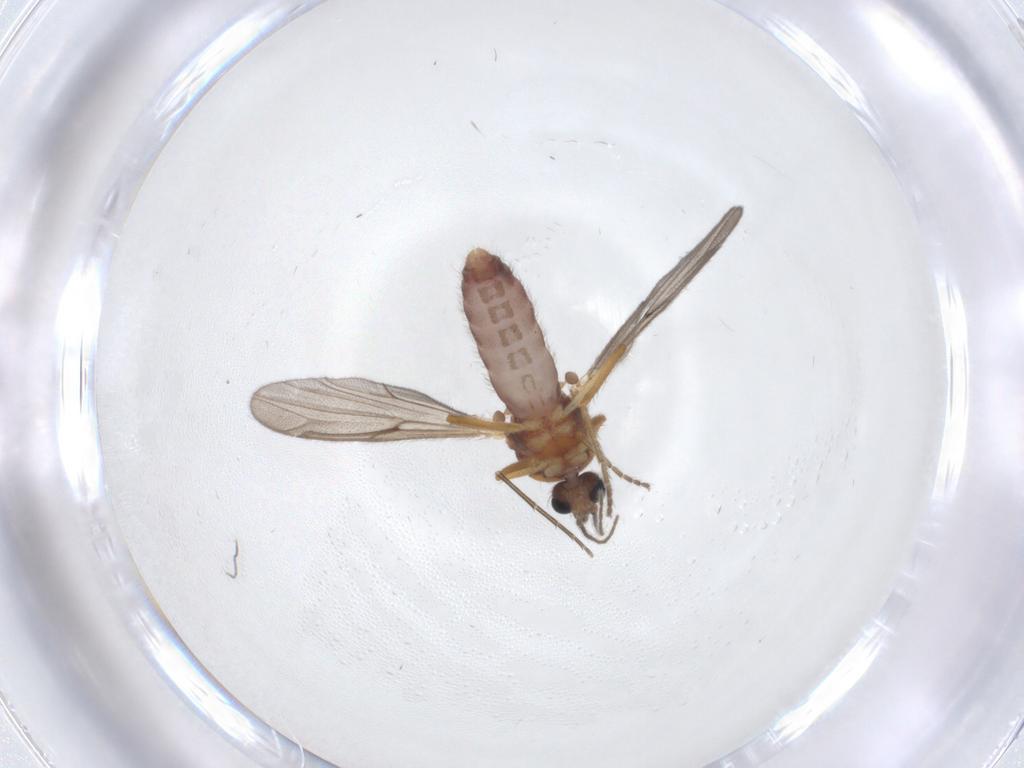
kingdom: Animalia
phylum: Arthropoda
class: Insecta
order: Diptera
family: Ceratopogonidae
